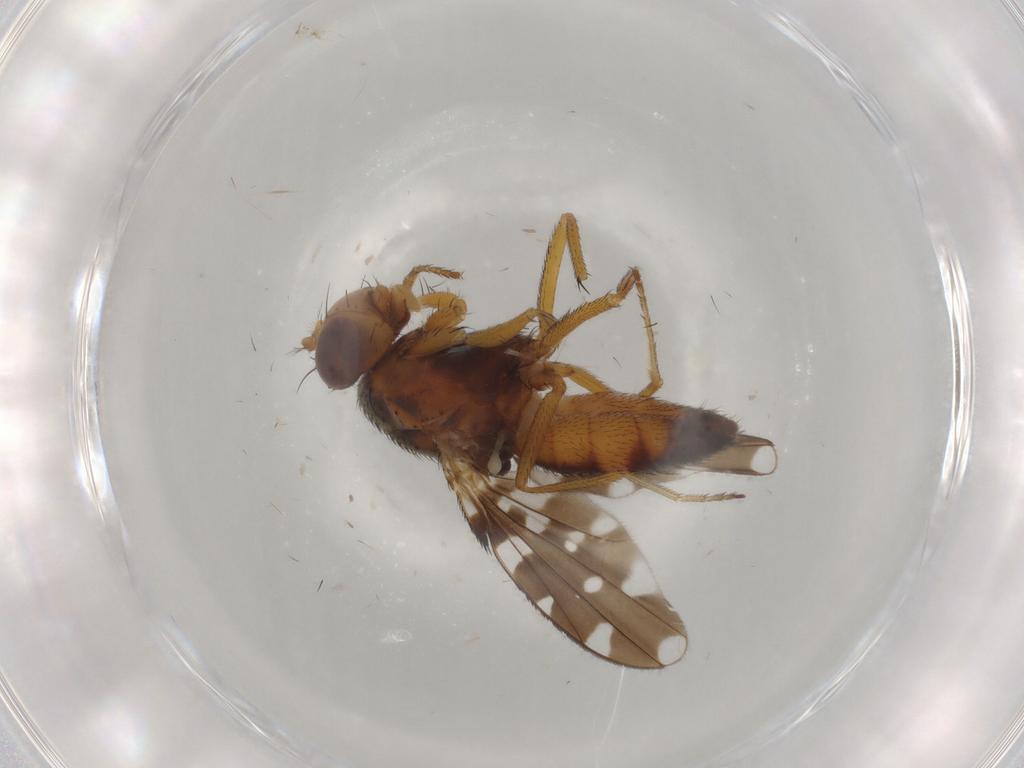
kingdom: Animalia
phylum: Arthropoda
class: Insecta
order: Diptera
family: Ephydridae
